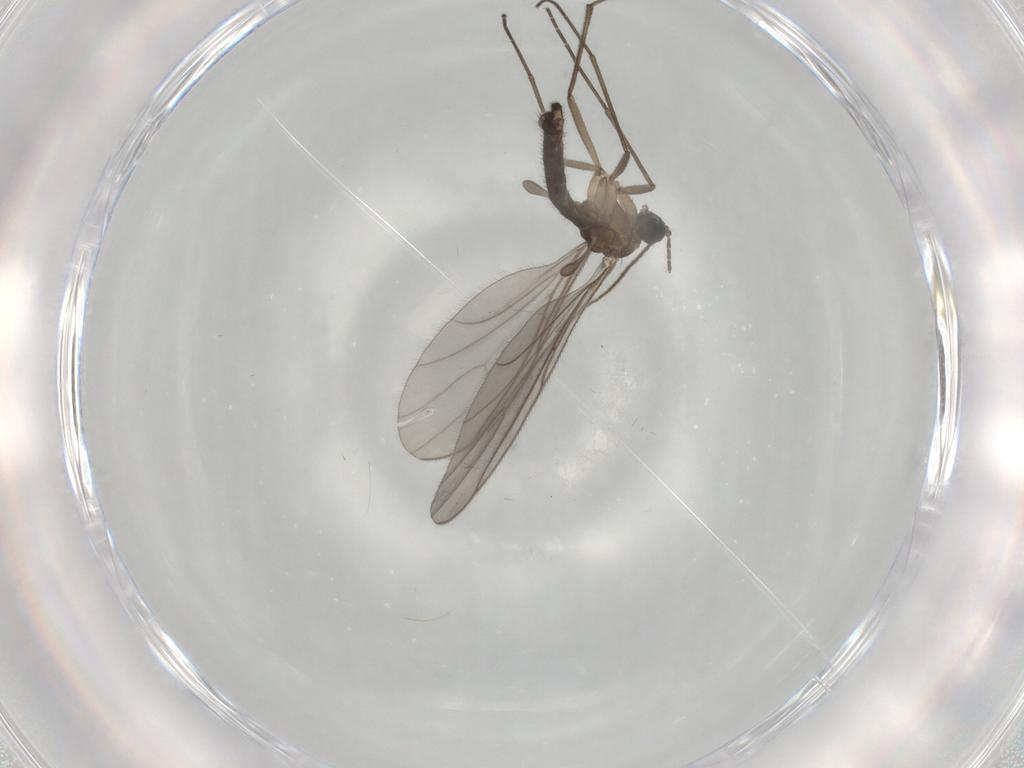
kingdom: Animalia
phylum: Arthropoda
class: Insecta
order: Diptera
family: Sciaridae
